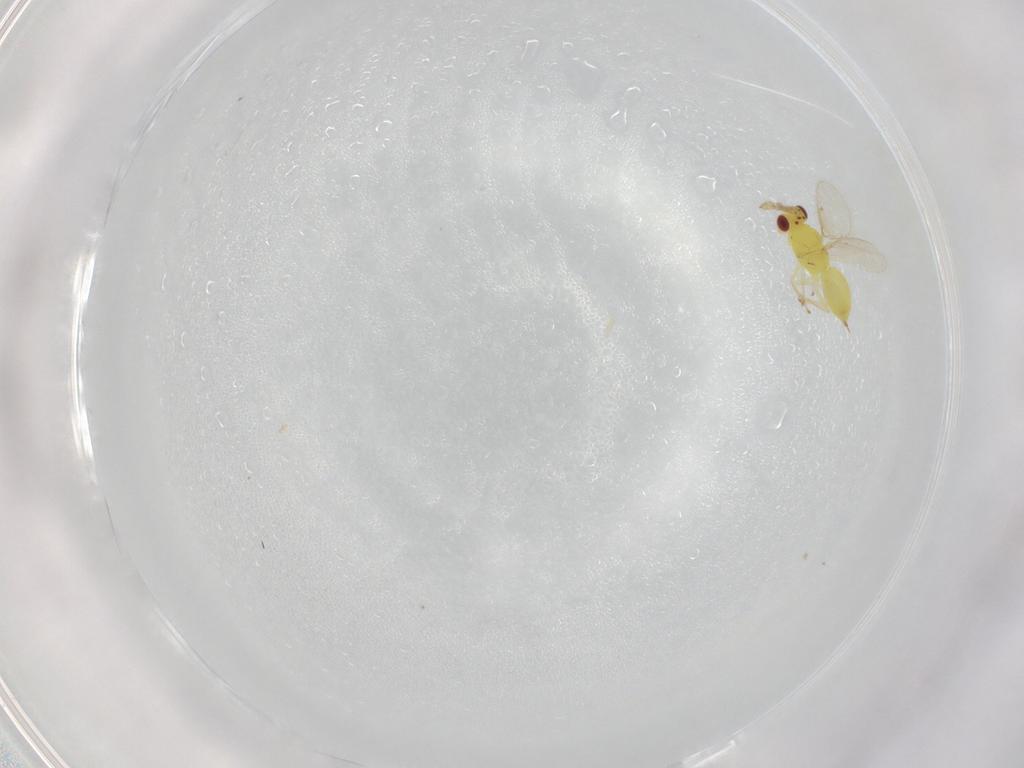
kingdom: Animalia
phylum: Arthropoda
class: Insecta
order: Hymenoptera
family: Eulophidae
